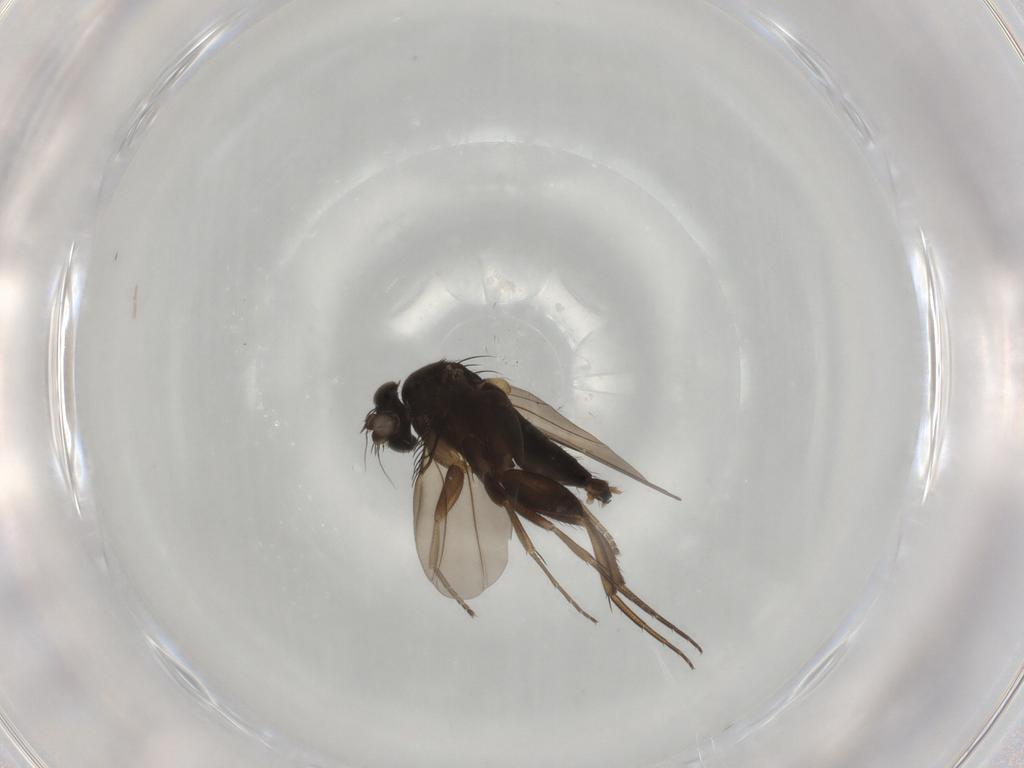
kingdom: Animalia
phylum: Arthropoda
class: Insecta
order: Diptera
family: Phoridae
